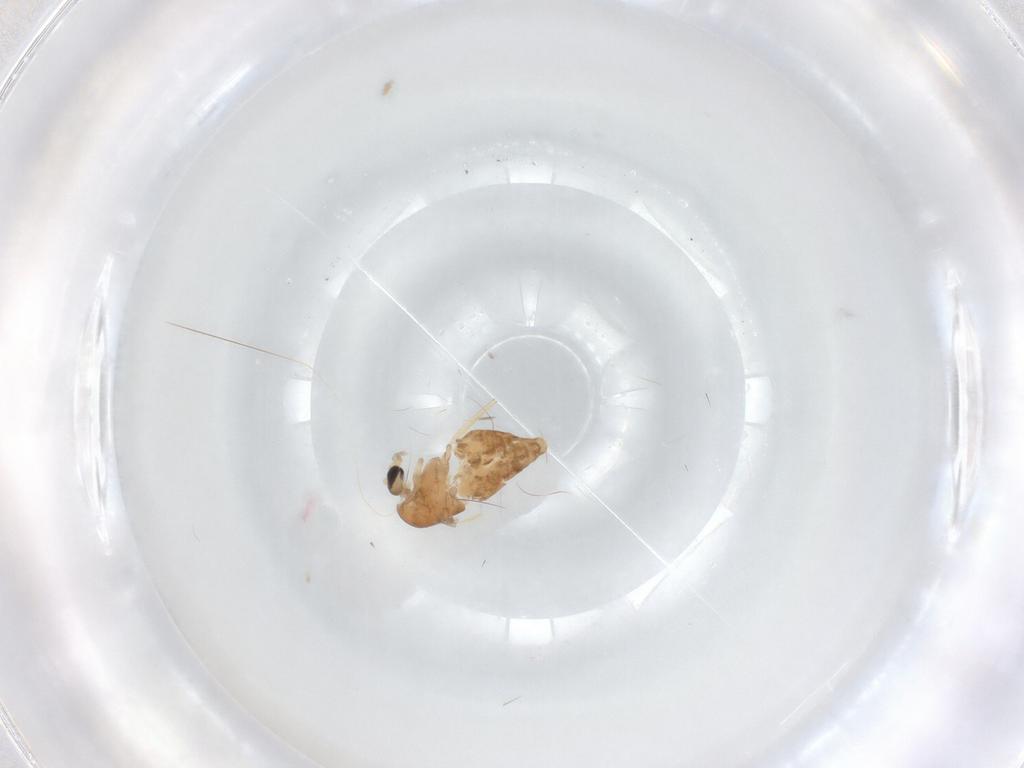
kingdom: Animalia
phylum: Arthropoda
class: Insecta
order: Diptera
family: Chironomidae
